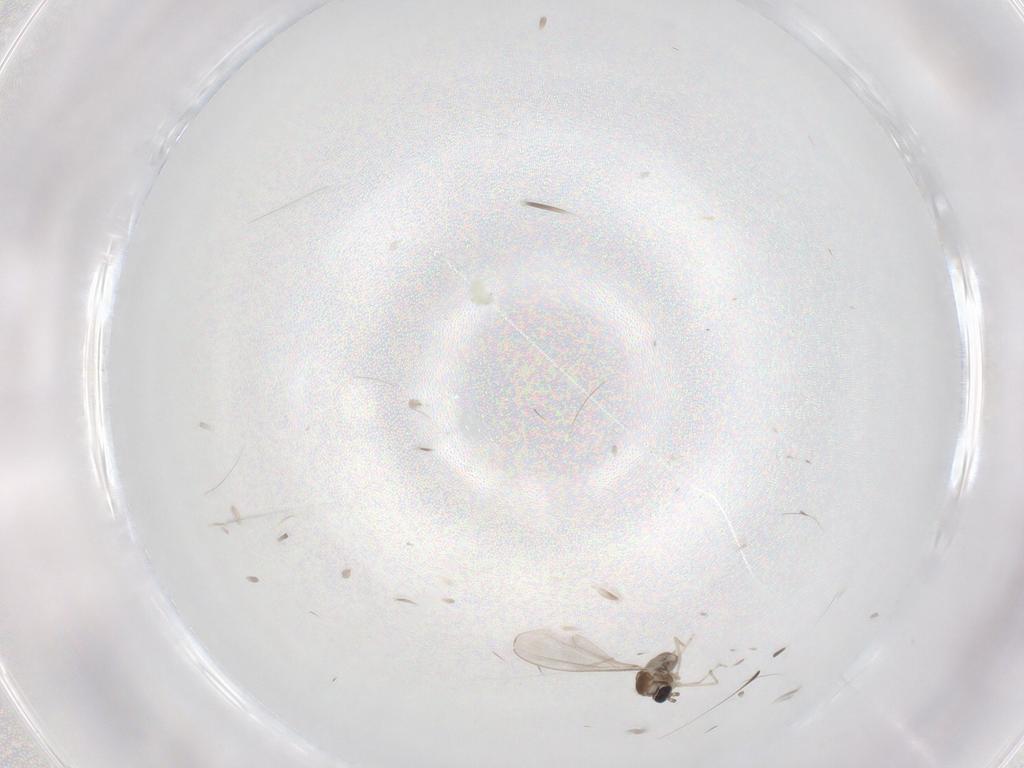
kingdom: Animalia
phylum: Arthropoda
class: Insecta
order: Diptera
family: Cecidomyiidae
